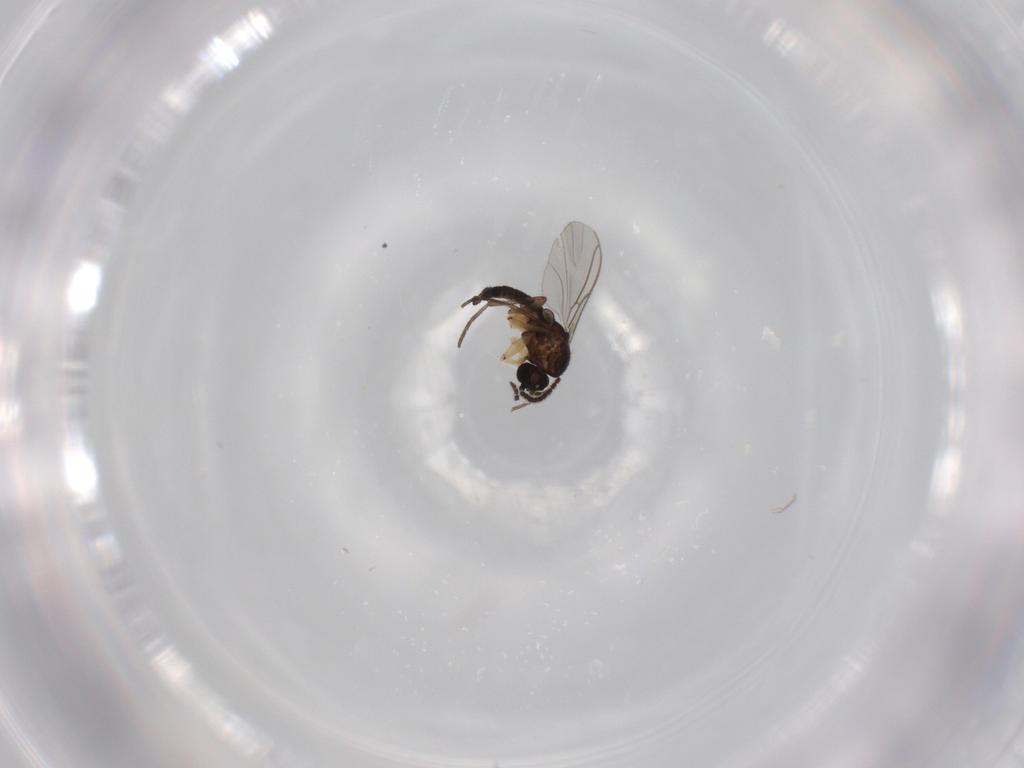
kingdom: Animalia
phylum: Arthropoda
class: Insecta
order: Diptera
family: Sciaridae
